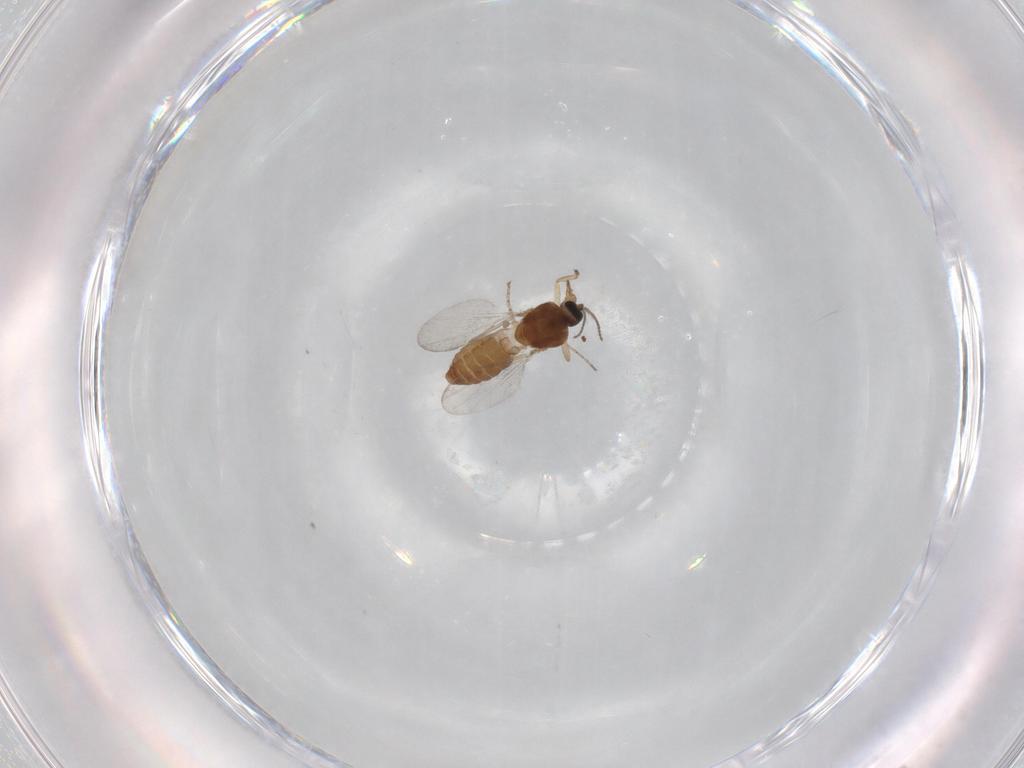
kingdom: Animalia
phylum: Arthropoda
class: Insecta
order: Diptera
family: Ceratopogonidae
